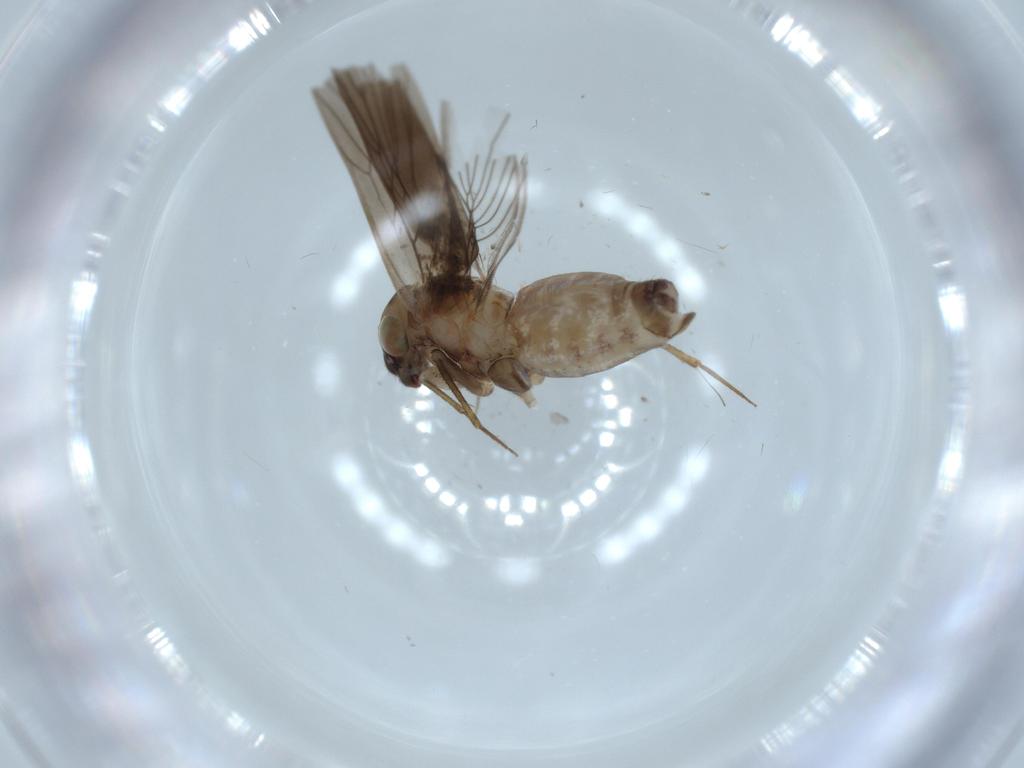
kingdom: Animalia
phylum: Arthropoda
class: Insecta
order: Psocodea
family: Lepidopsocidae
